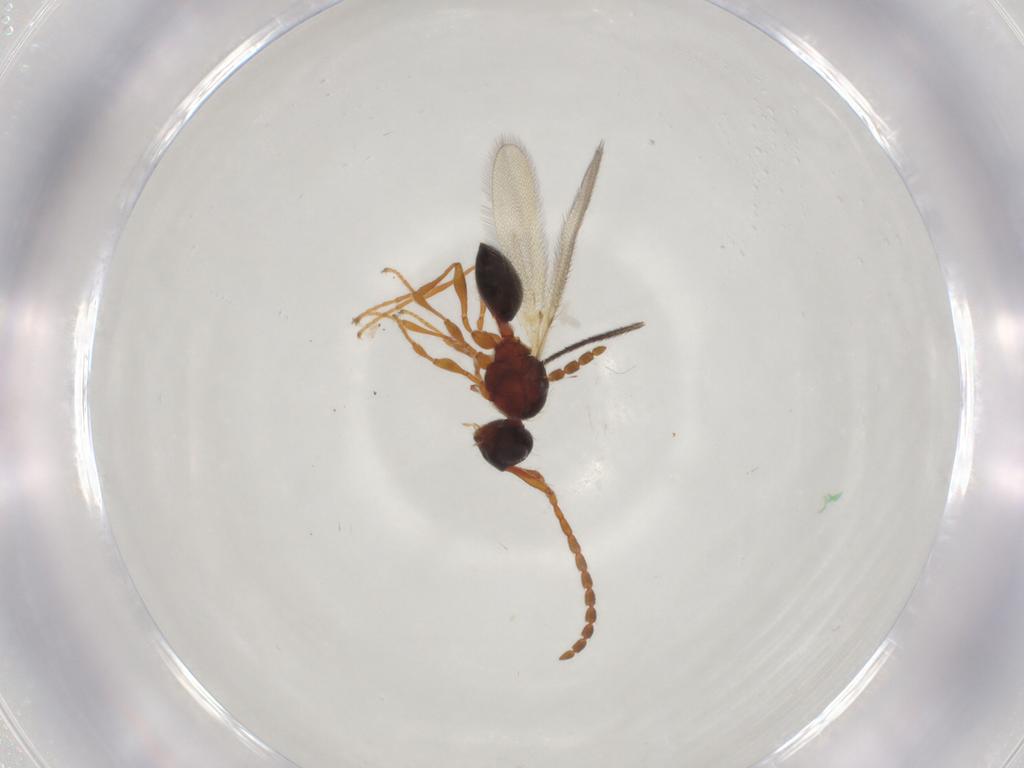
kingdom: Animalia
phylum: Arthropoda
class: Insecta
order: Hymenoptera
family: Diapriidae
